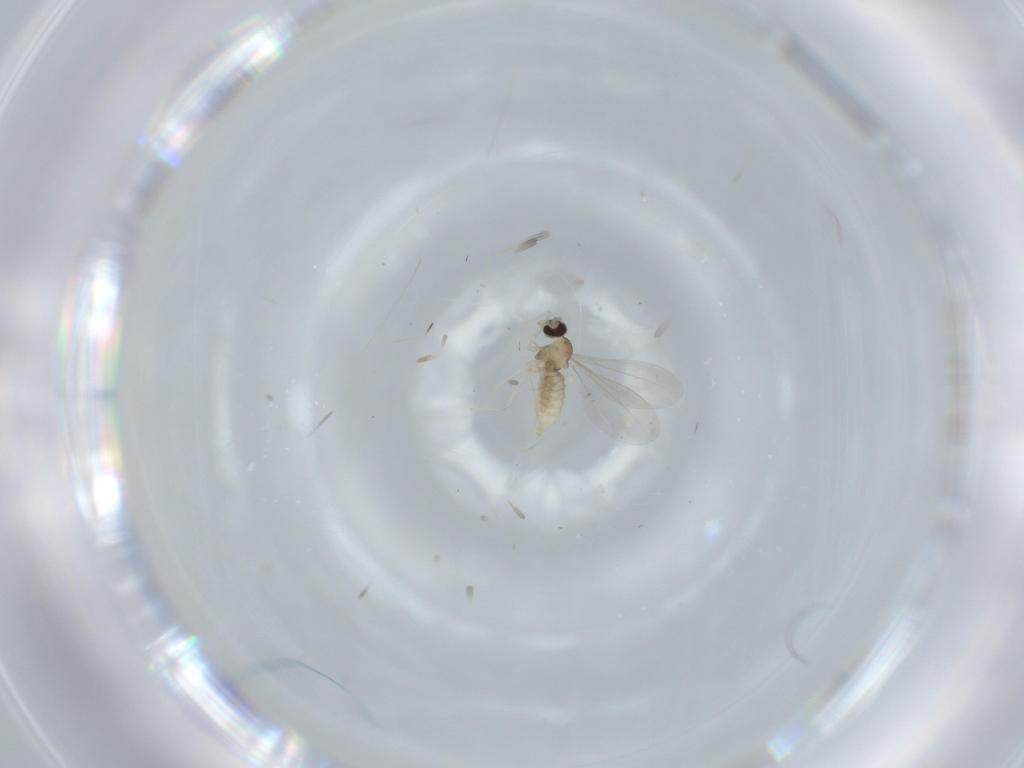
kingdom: Animalia
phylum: Arthropoda
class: Insecta
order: Diptera
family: Cecidomyiidae
